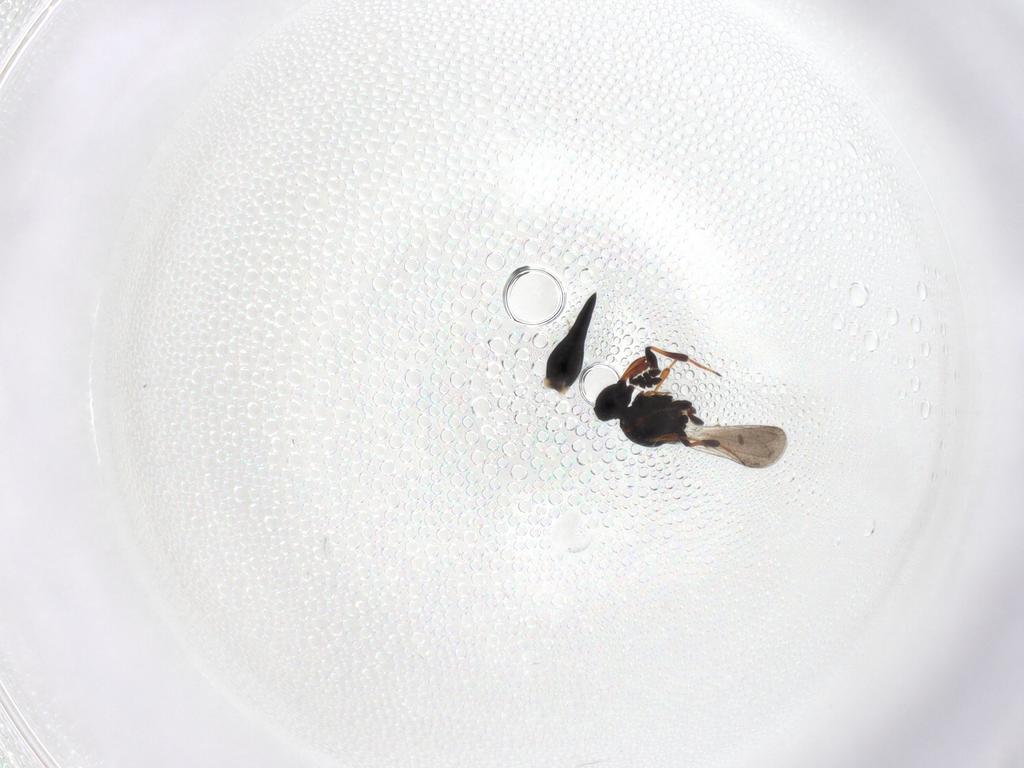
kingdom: Animalia
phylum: Arthropoda
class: Insecta
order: Hymenoptera
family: Platygastridae
